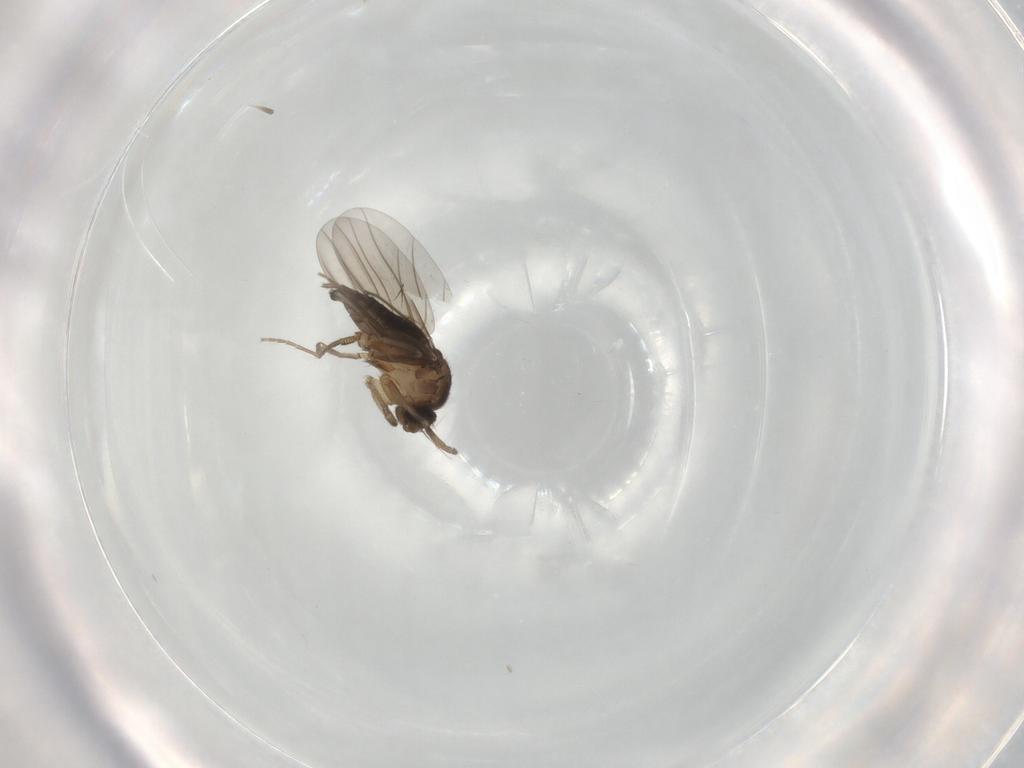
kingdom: Animalia
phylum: Arthropoda
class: Insecta
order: Diptera
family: Phoridae
